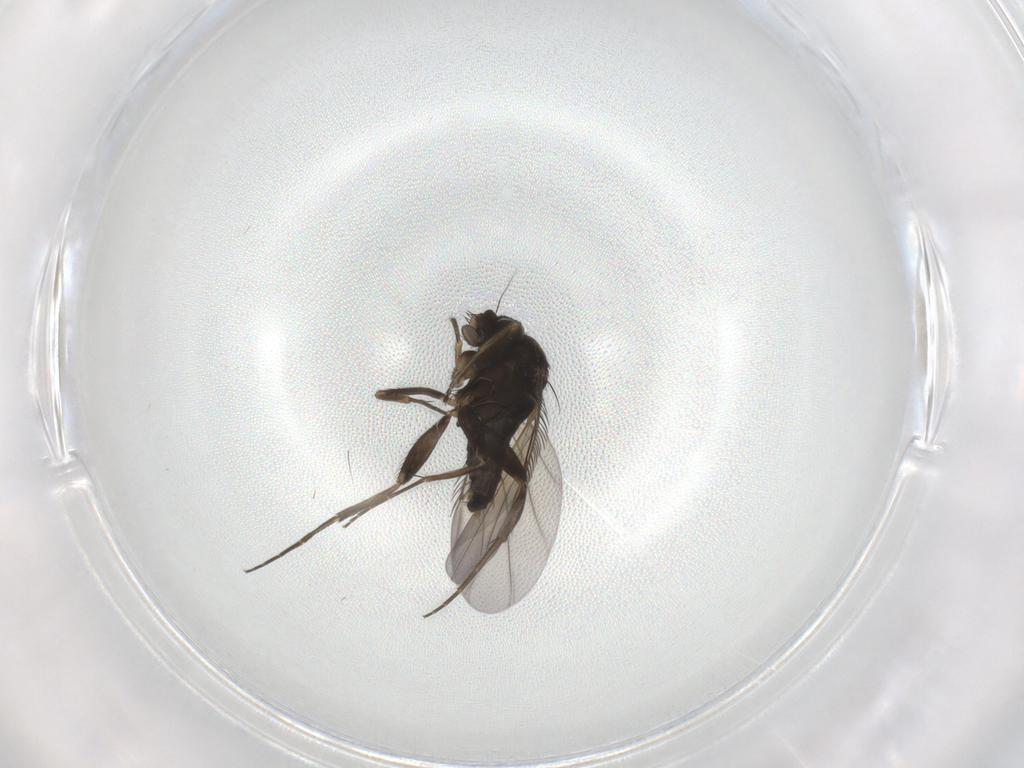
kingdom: Animalia
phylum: Arthropoda
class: Insecta
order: Diptera
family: Phoridae
